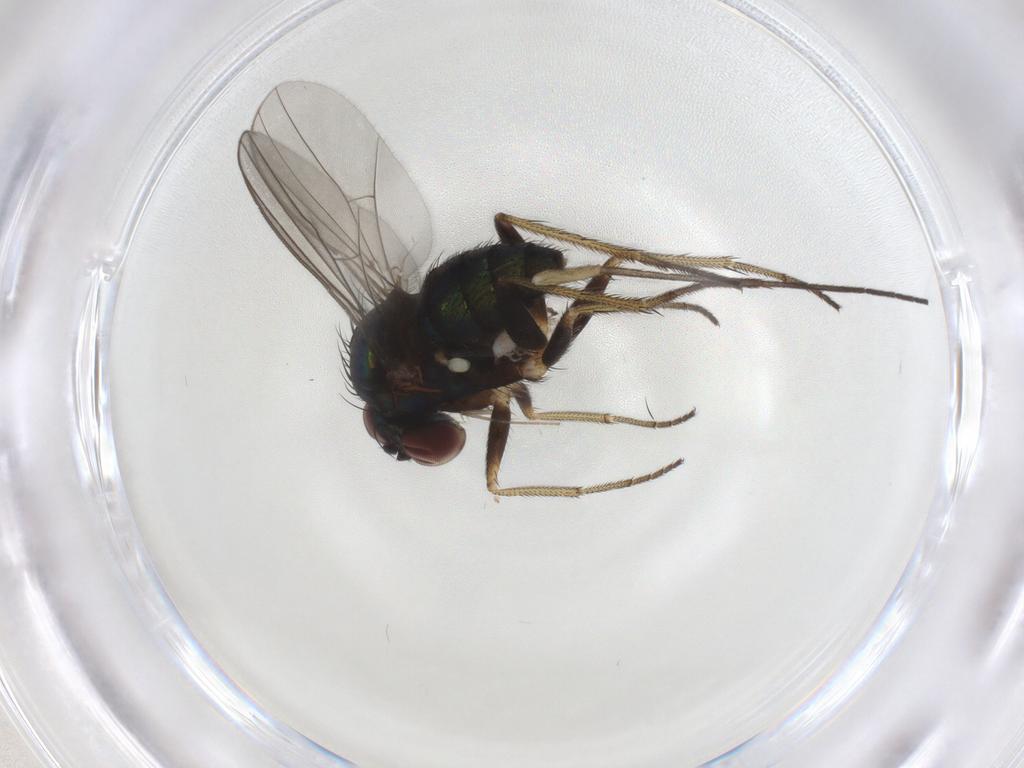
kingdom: Animalia
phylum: Arthropoda
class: Insecta
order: Diptera
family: Sciaridae
